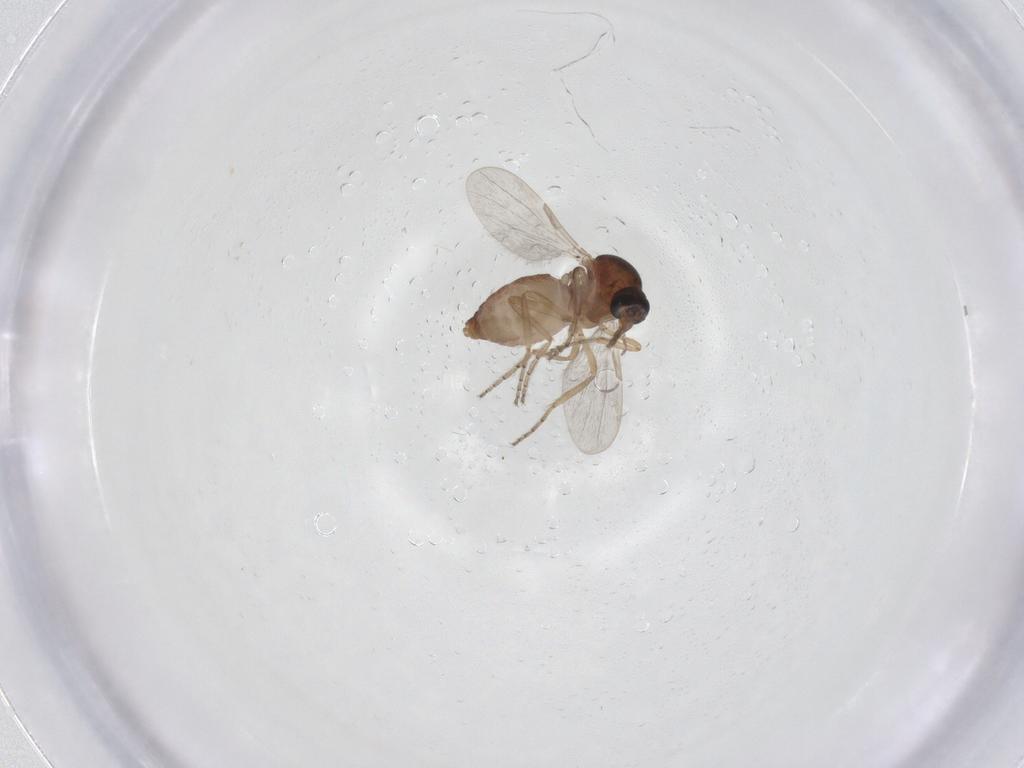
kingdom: Animalia
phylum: Arthropoda
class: Insecta
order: Diptera
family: Ceratopogonidae
